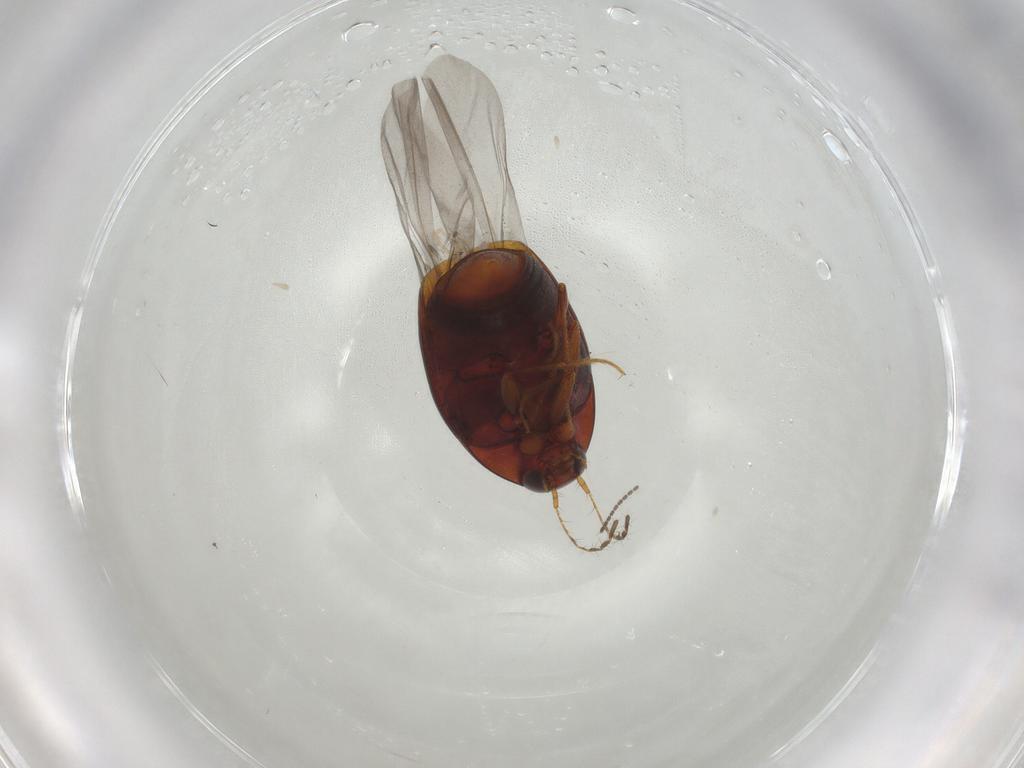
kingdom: Animalia
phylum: Arthropoda
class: Insecta
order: Coleoptera
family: Staphylinidae
